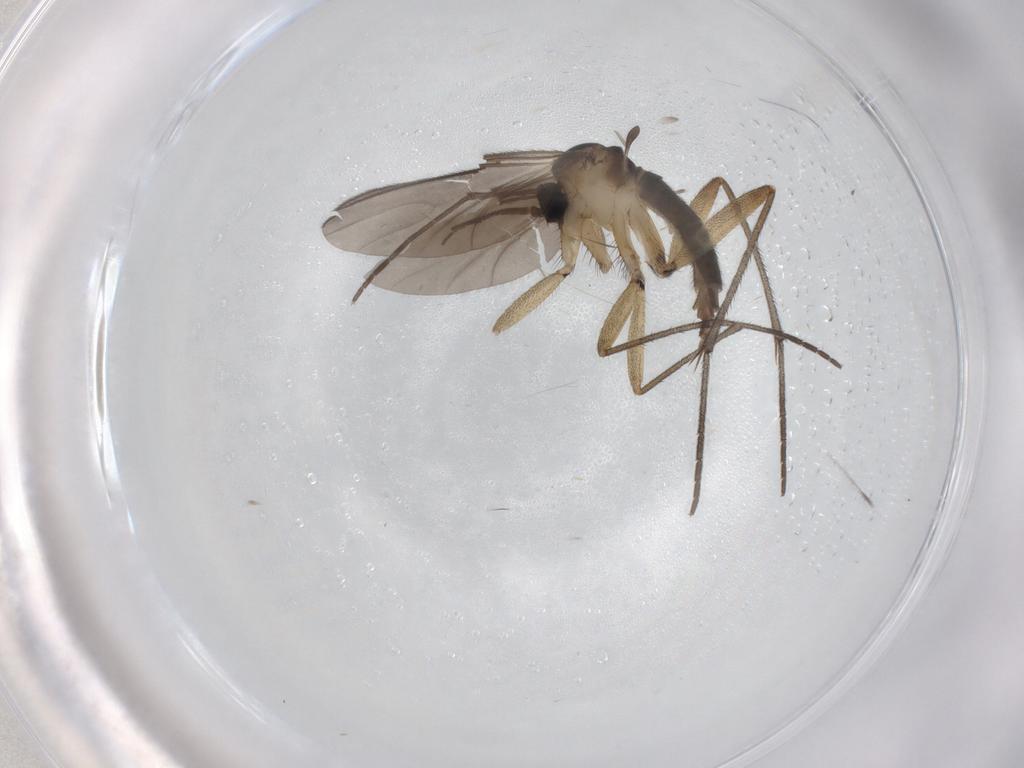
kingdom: Animalia
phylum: Arthropoda
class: Insecta
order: Diptera
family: Sciaridae
